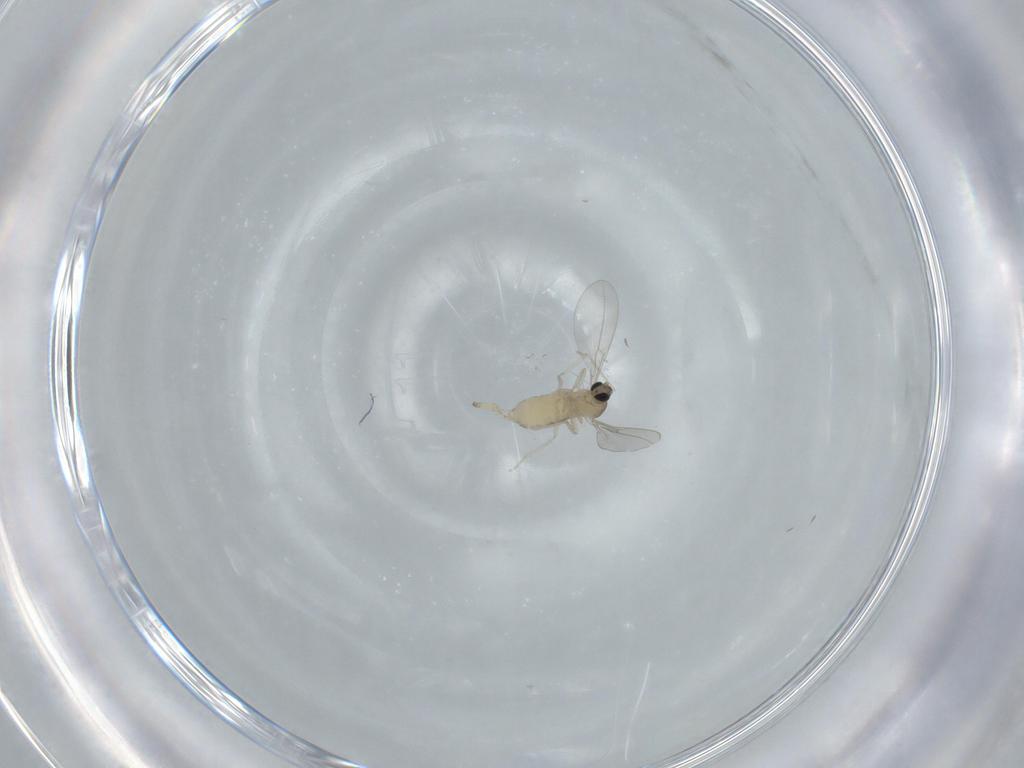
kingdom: Animalia
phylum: Arthropoda
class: Insecta
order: Diptera
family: Cecidomyiidae
